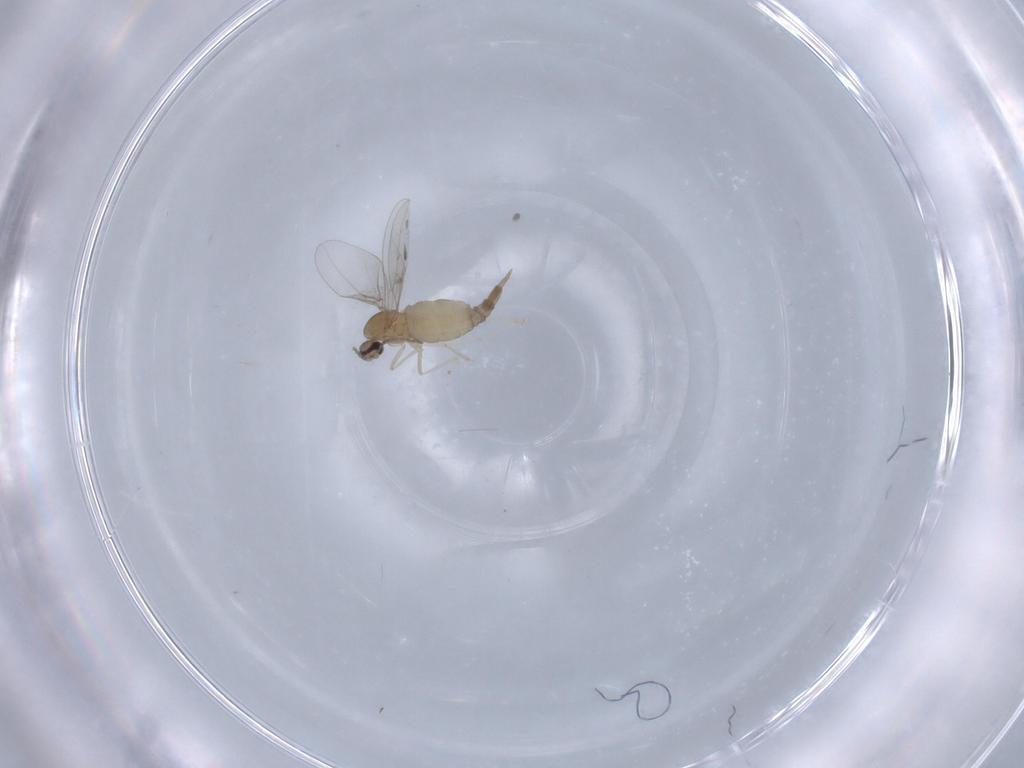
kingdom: Animalia
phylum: Arthropoda
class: Insecta
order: Diptera
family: Cecidomyiidae
